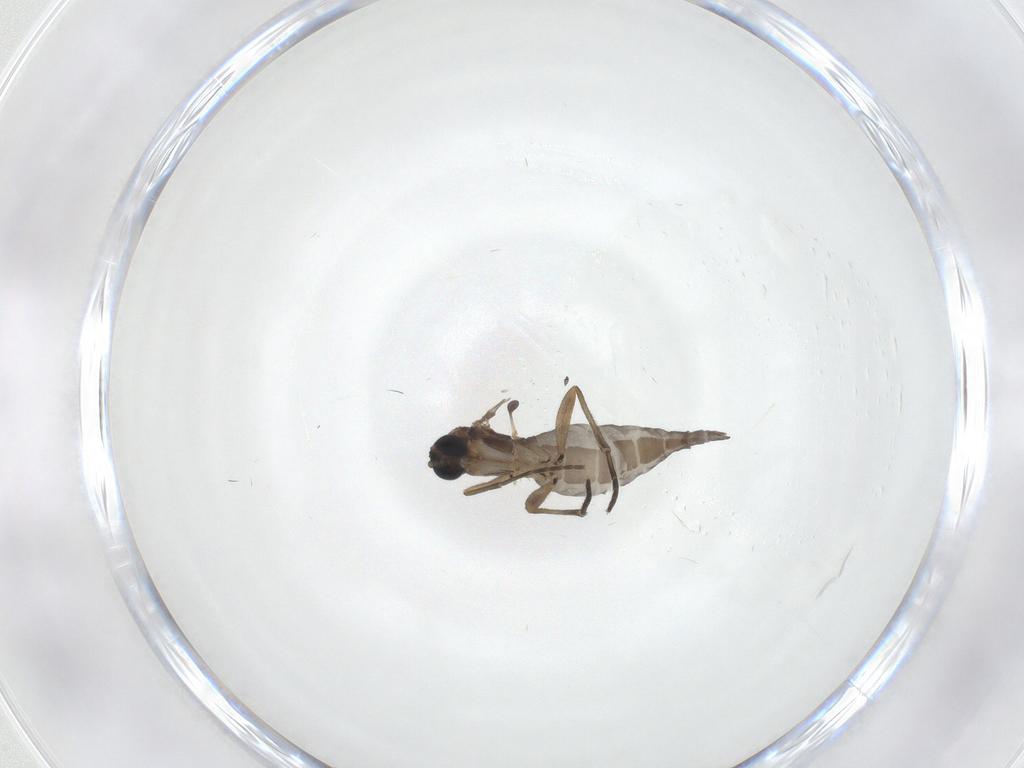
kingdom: Animalia
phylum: Arthropoda
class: Insecta
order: Diptera
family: Sciaridae
